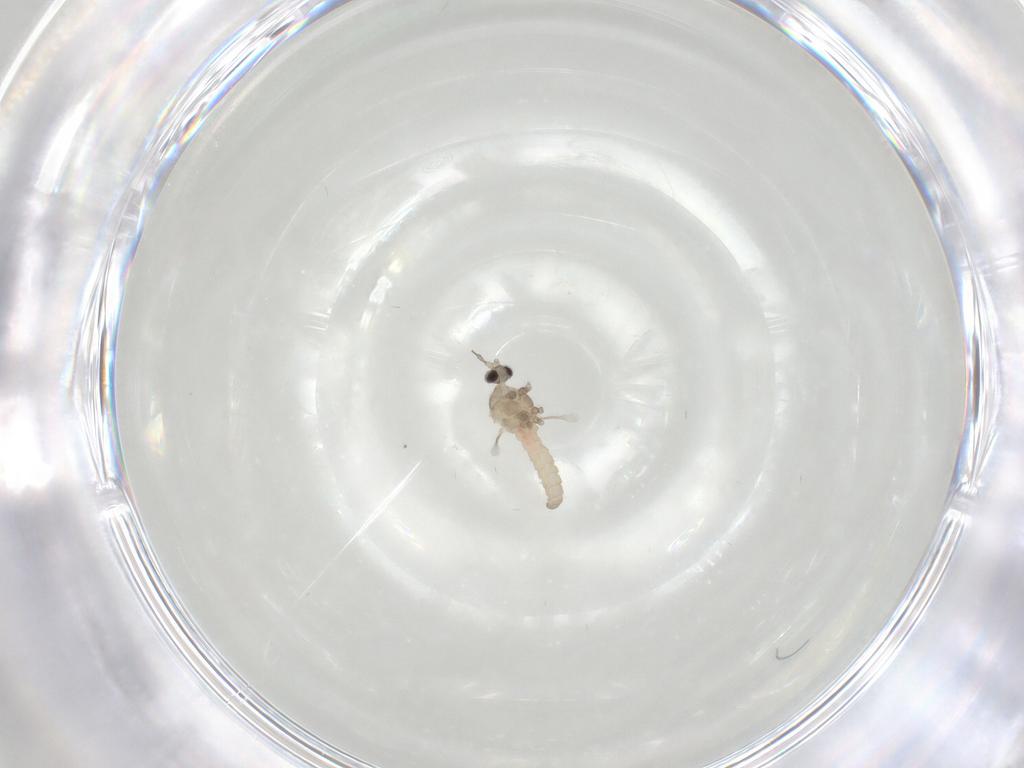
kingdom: Animalia
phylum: Arthropoda
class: Insecta
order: Diptera
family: Cecidomyiidae
